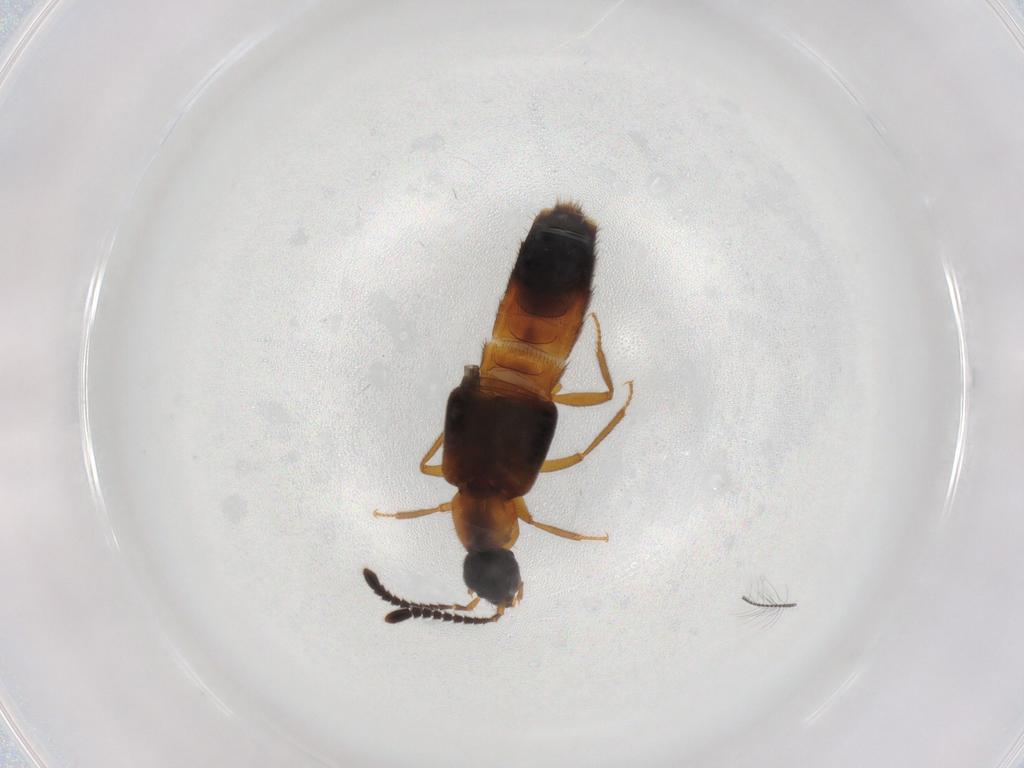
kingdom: Animalia
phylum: Arthropoda
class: Insecta
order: Coleoptera
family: Staphylinidae
